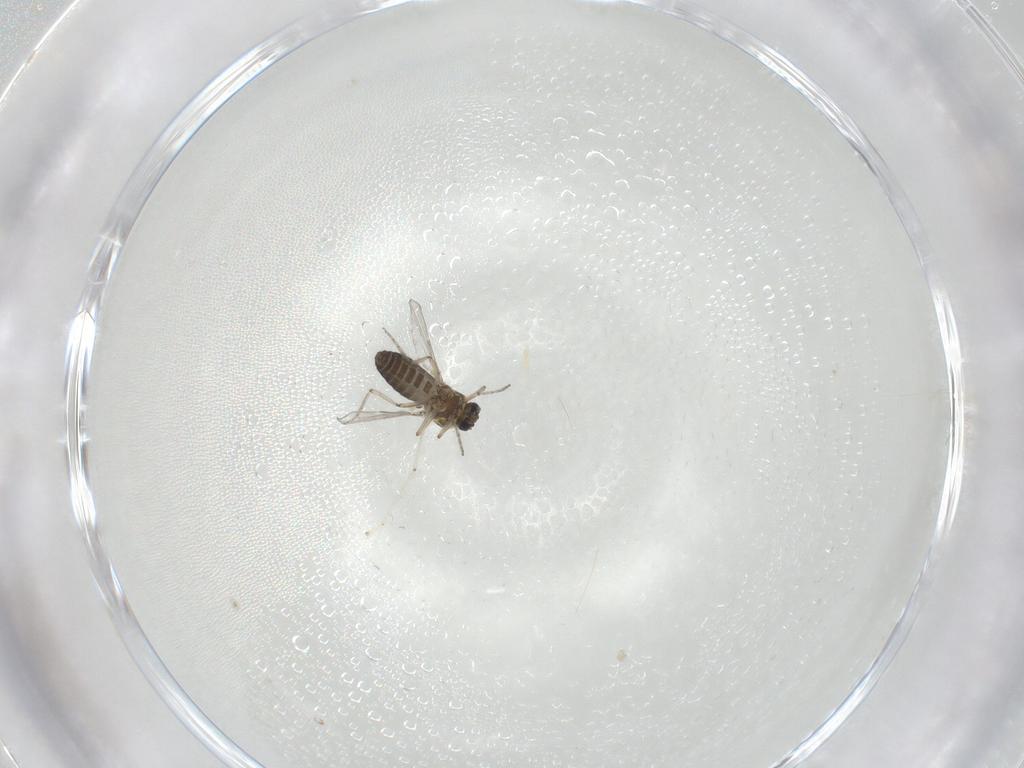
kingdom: Animalia
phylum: Arthropoda
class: Insecta
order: Diptera
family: Ceratopogonidae
